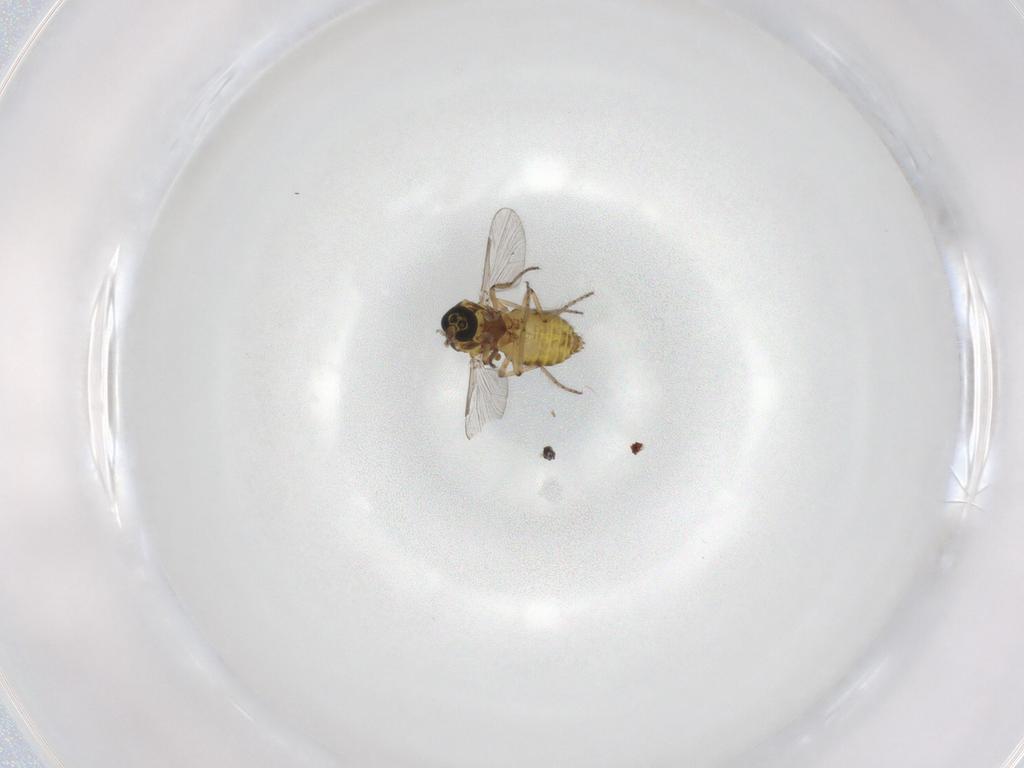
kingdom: Animalia
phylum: Arthropoda
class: Insecta
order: Diptera
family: Ceratopogonidae
